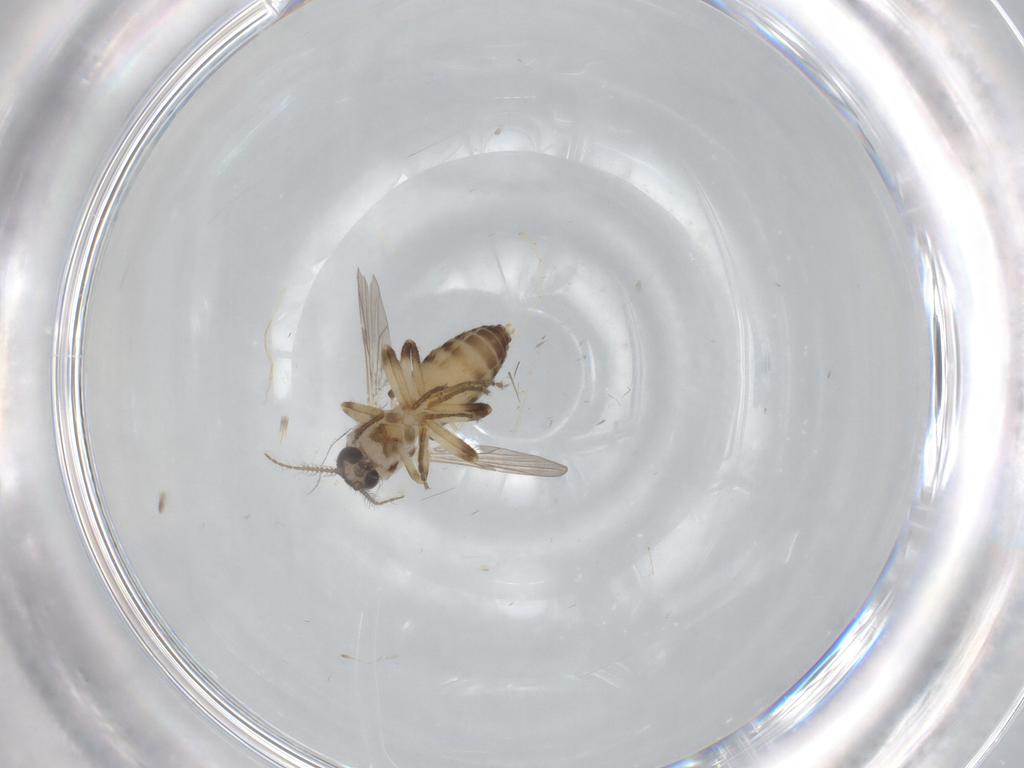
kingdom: Animalia
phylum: Arthropoda
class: Insecta
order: Diptera
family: Ceratopogonidae
